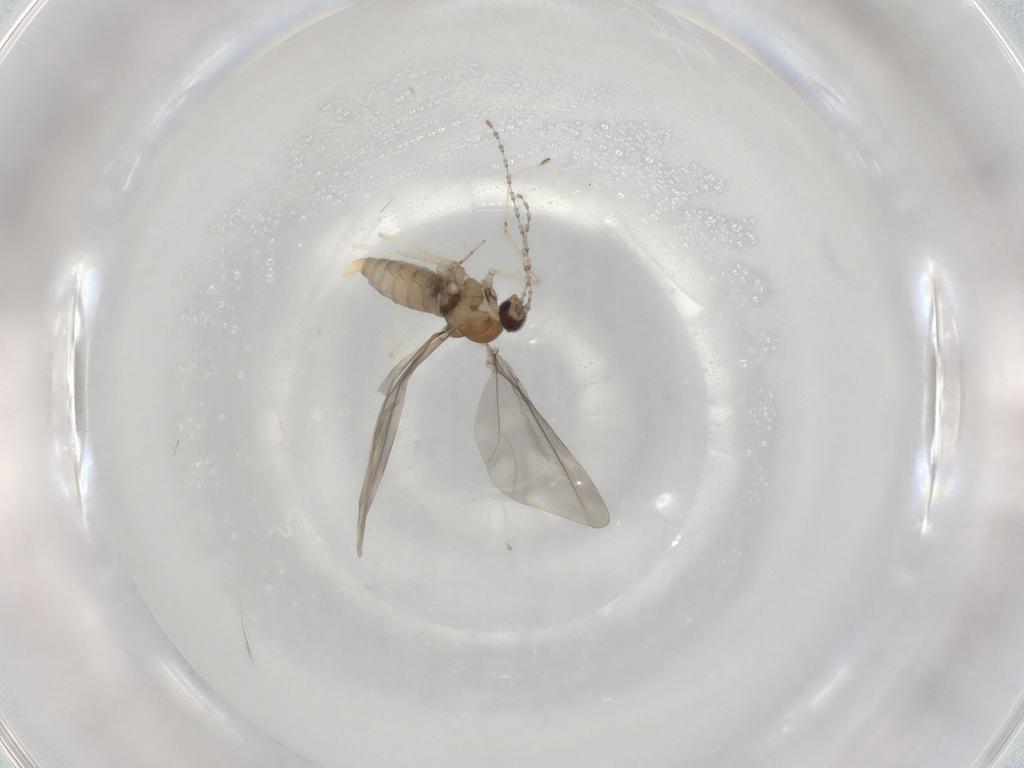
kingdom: Animalia
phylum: Arthropoda
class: Insecta
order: Diptera
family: Cecidomyiidae
